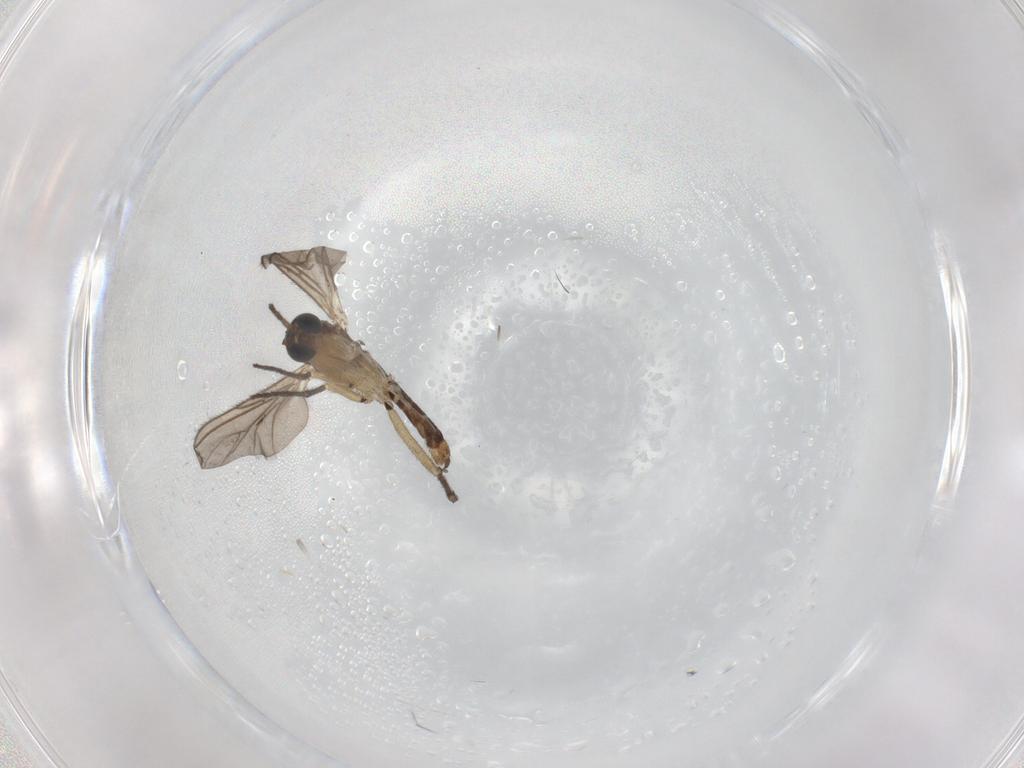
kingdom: Animalia
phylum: Arthropoda
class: Insecta
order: Diptera
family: Sciaridae
